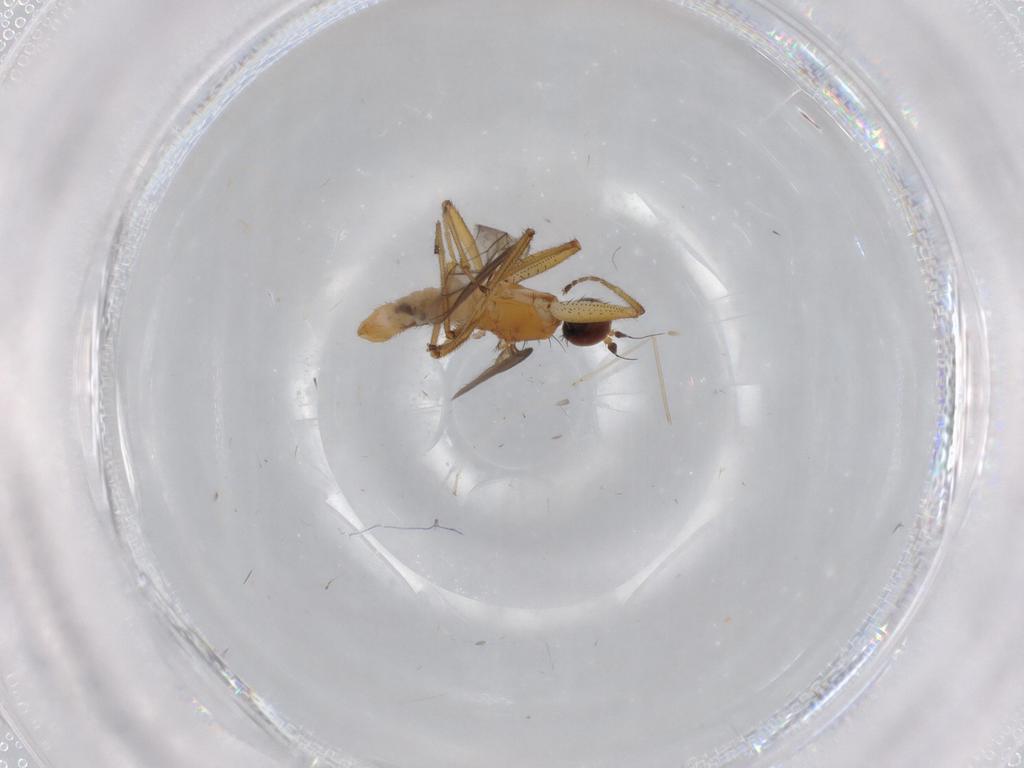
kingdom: Animalia
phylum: Arthropoda
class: Insecta
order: Diptera
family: Empididae
